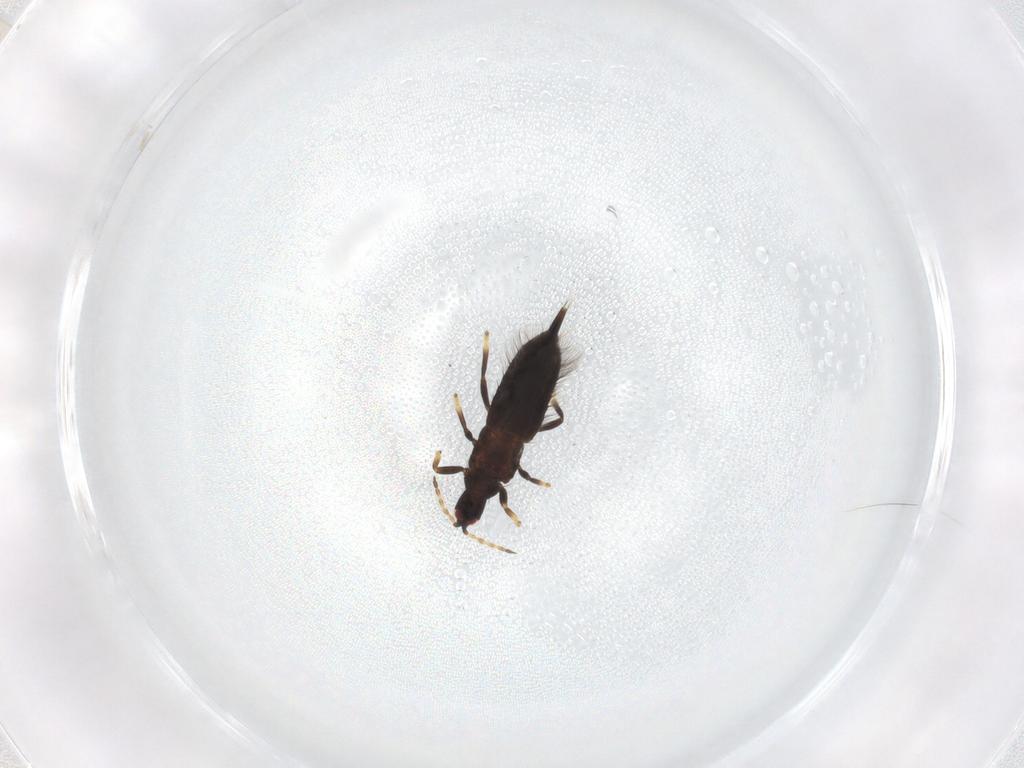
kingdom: Animalia
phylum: Arthropoda
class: Insecta
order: Thysanoptera
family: Phlaeothripidae
